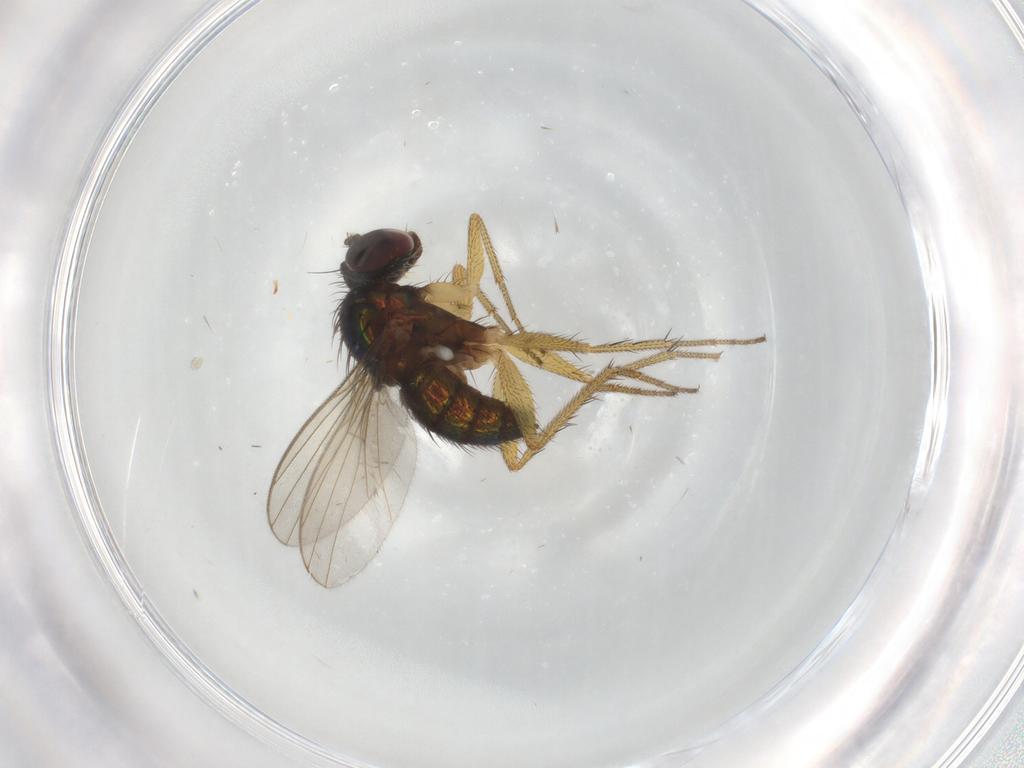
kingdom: Animalia
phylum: Arthropoda
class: Insecta
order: Diptera
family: Dolichopodidae
